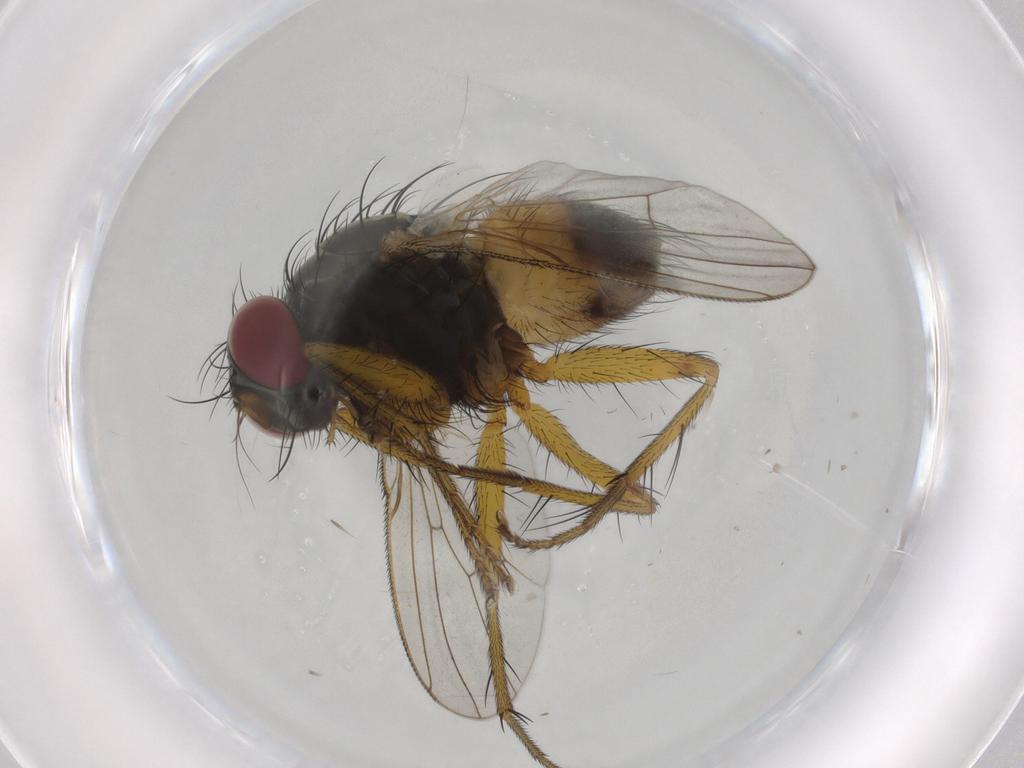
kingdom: Animalia
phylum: Arthropoda
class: Insecta
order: Diptera
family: Muscidae
